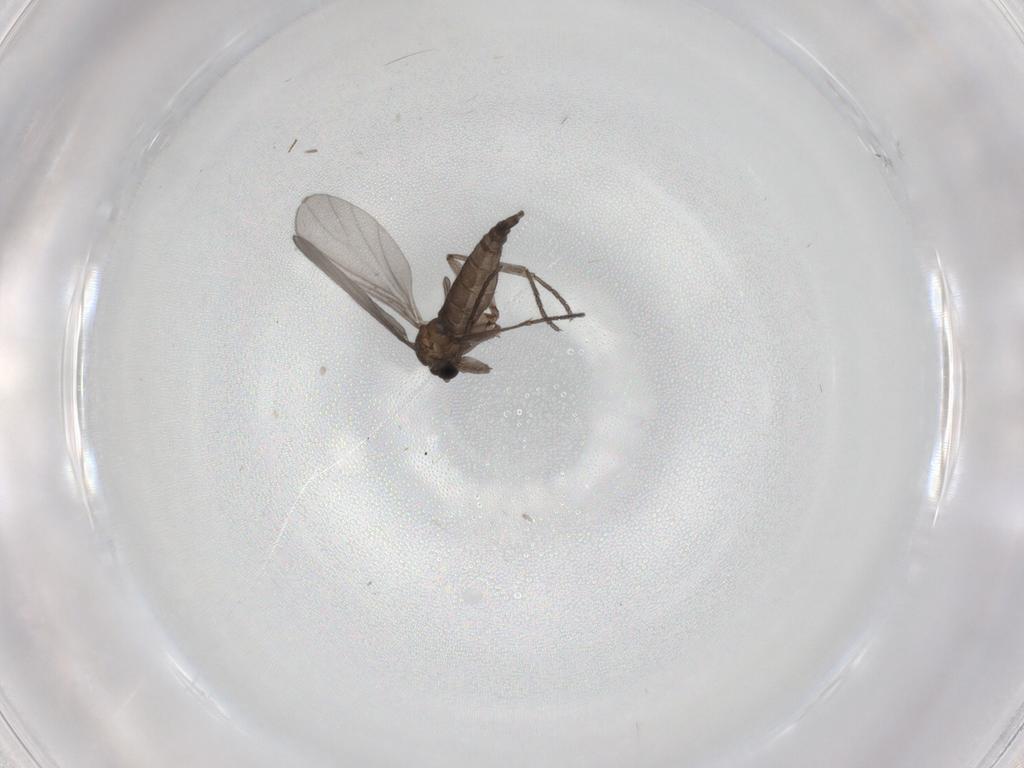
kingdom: Animalia
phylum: Arthropoda
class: Insecta
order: Diptera
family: Sciaridae
